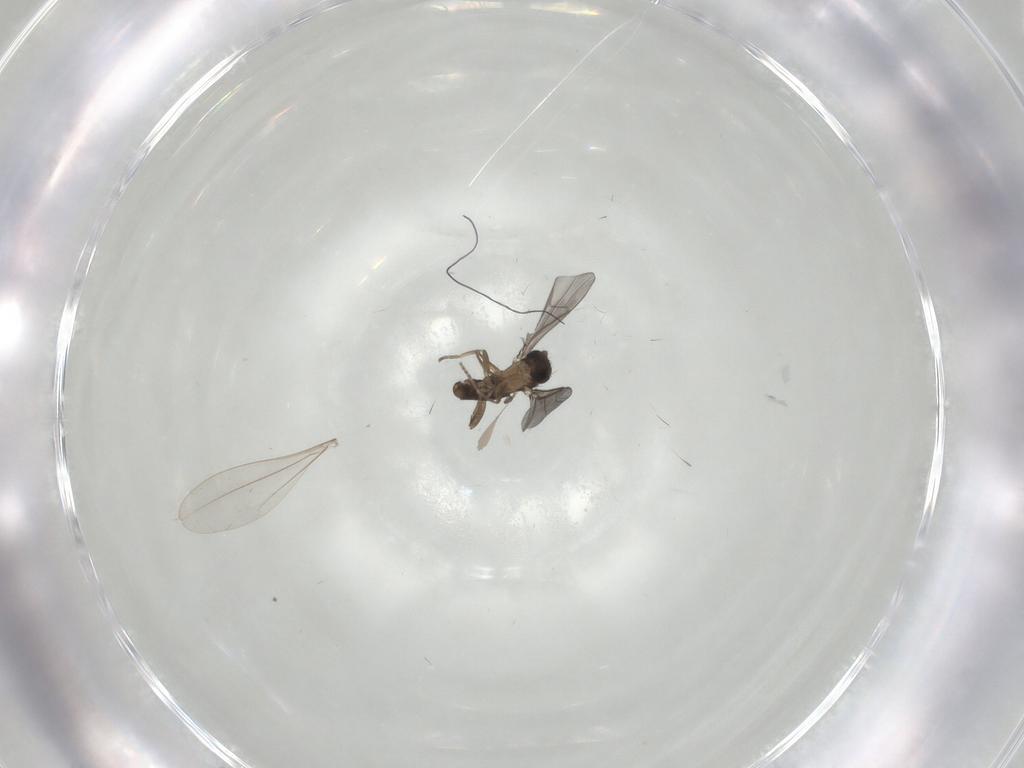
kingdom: Animalia
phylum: Arthropoda
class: Insecta
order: Diptera
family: Cecidomyiidae
